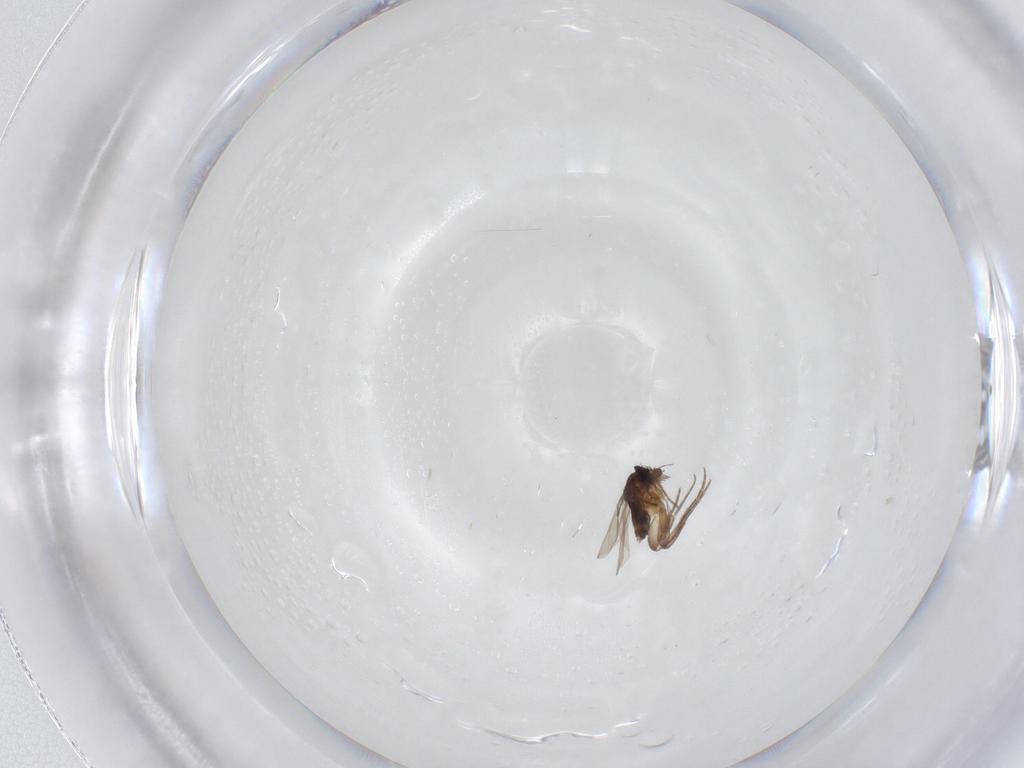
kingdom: Animalia
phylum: Arthropoda
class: Insecta
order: Diptera
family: Phoridae
